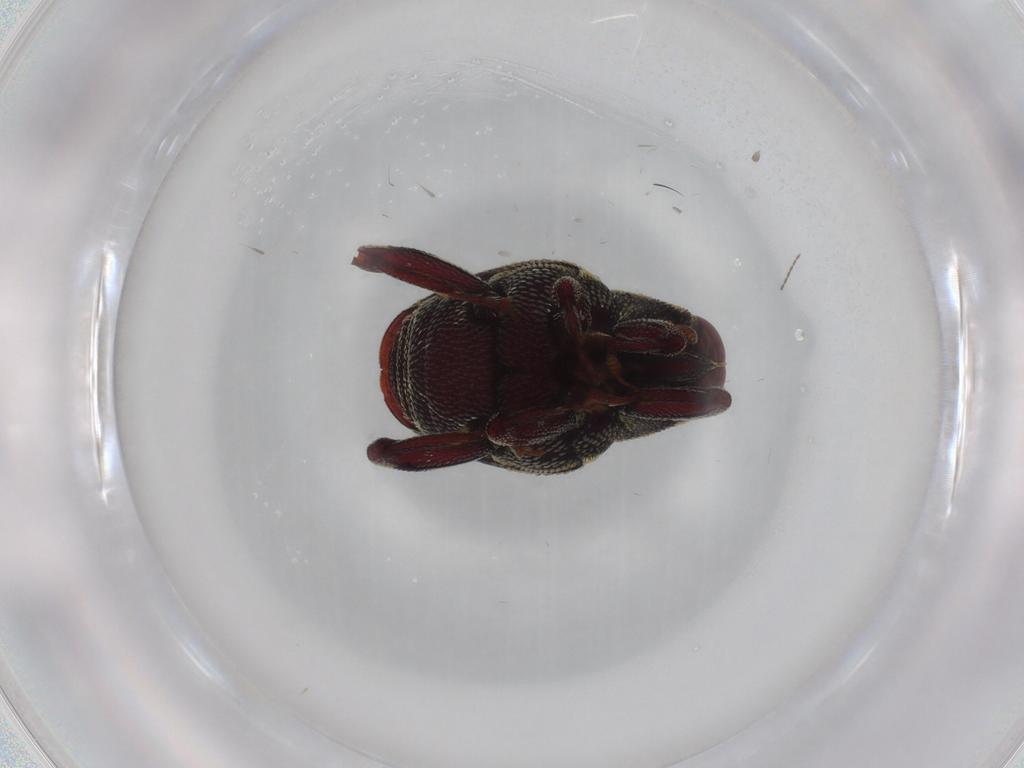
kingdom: Animalia
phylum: Arthropoda
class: Insecta
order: Coleoptera
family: Curculionidae
